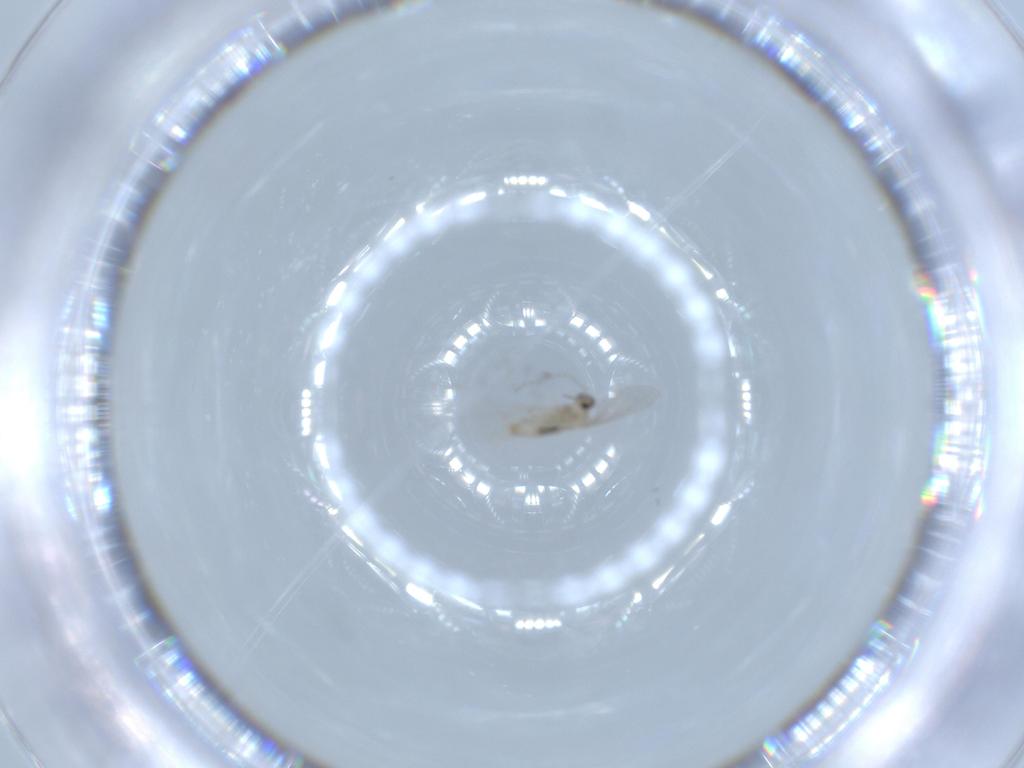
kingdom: Animalia
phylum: Arthropoda
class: Insecta
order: Diptera
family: Cecidomyiidae
